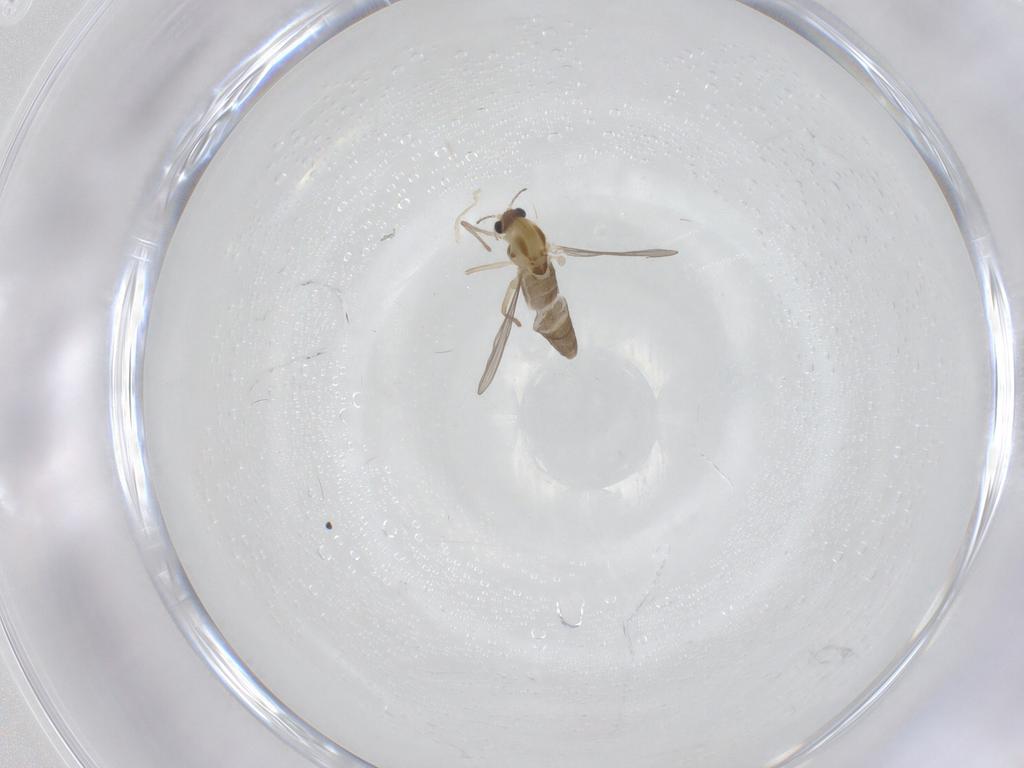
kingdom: Animalia
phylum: Arthropoda
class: Insecta
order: Diptera
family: Chironomidae
